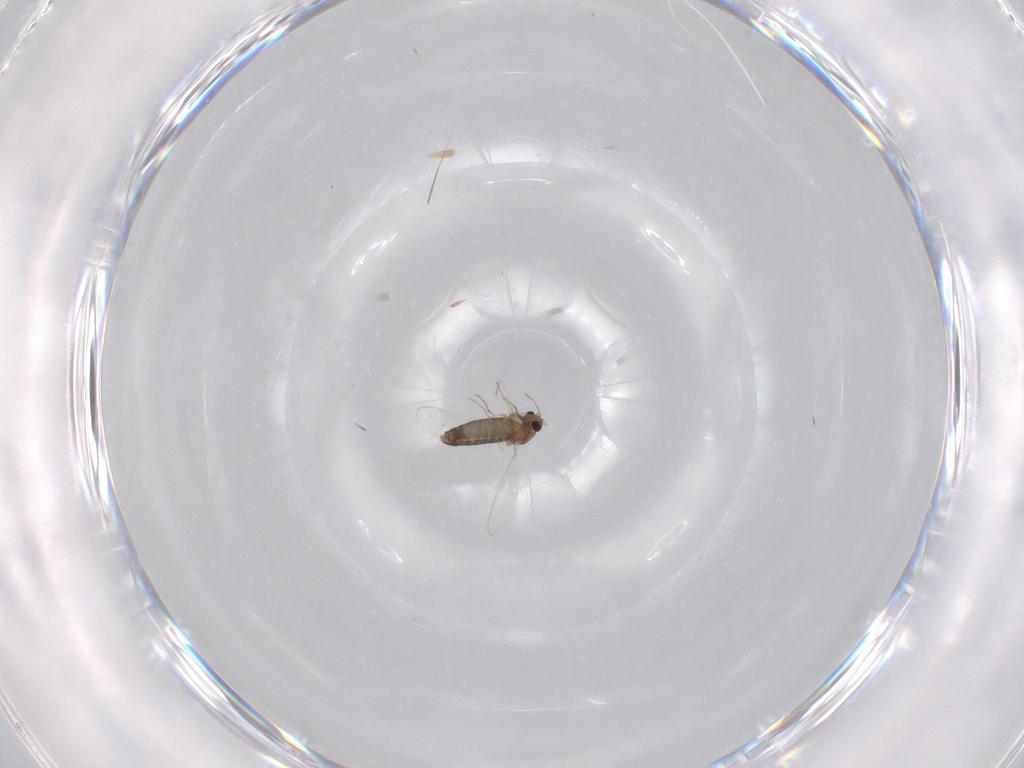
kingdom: Animalia
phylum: Arthropoda
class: Insecta
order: Diptera
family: Chironomidae
